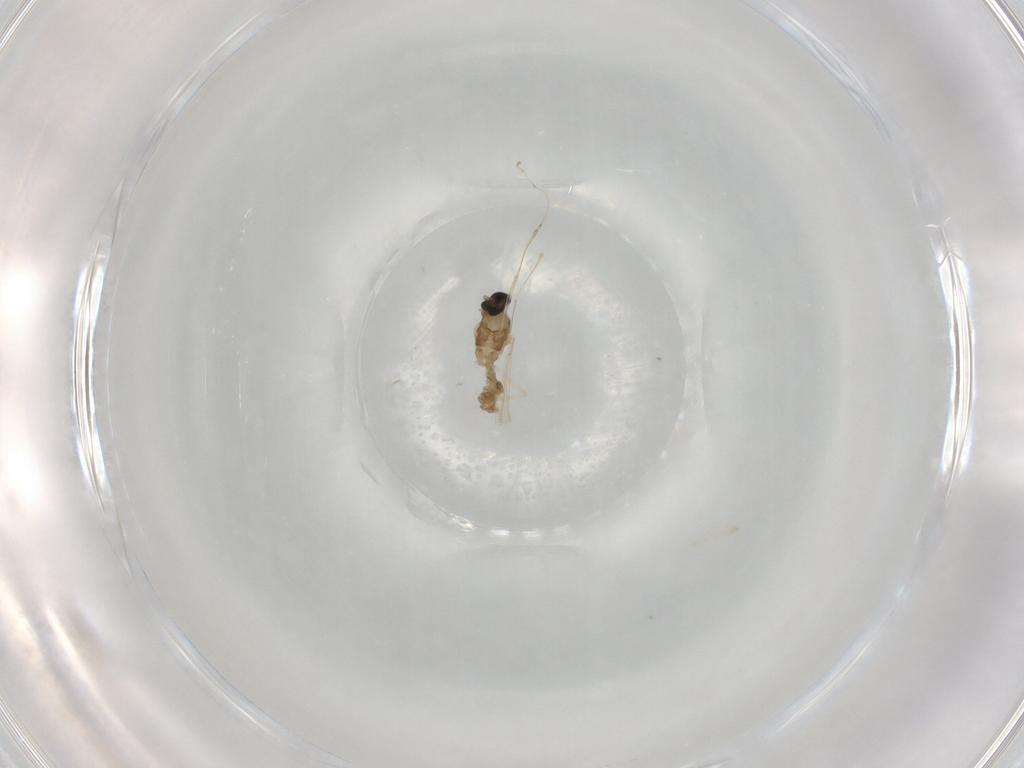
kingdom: Animalia
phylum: Arthropoda
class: Insecta
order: Diptera
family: Cecidomyiidae
